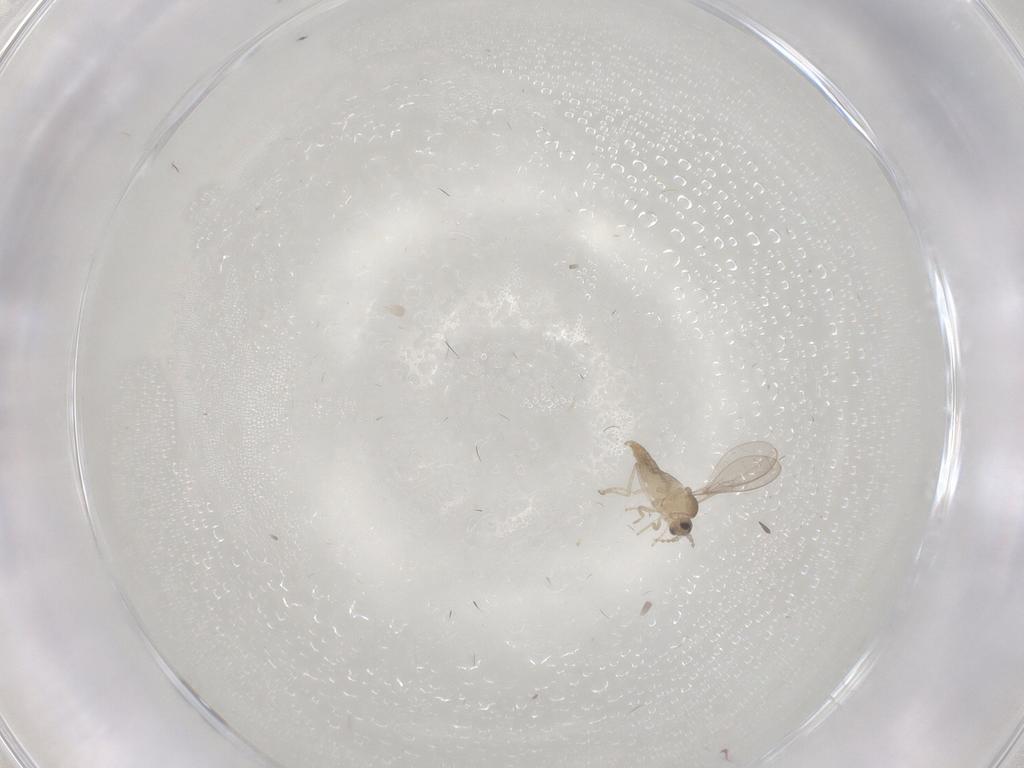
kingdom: Animalia
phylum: Arthropoda
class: Insecta
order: Diptera
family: Cecidomyiidae
